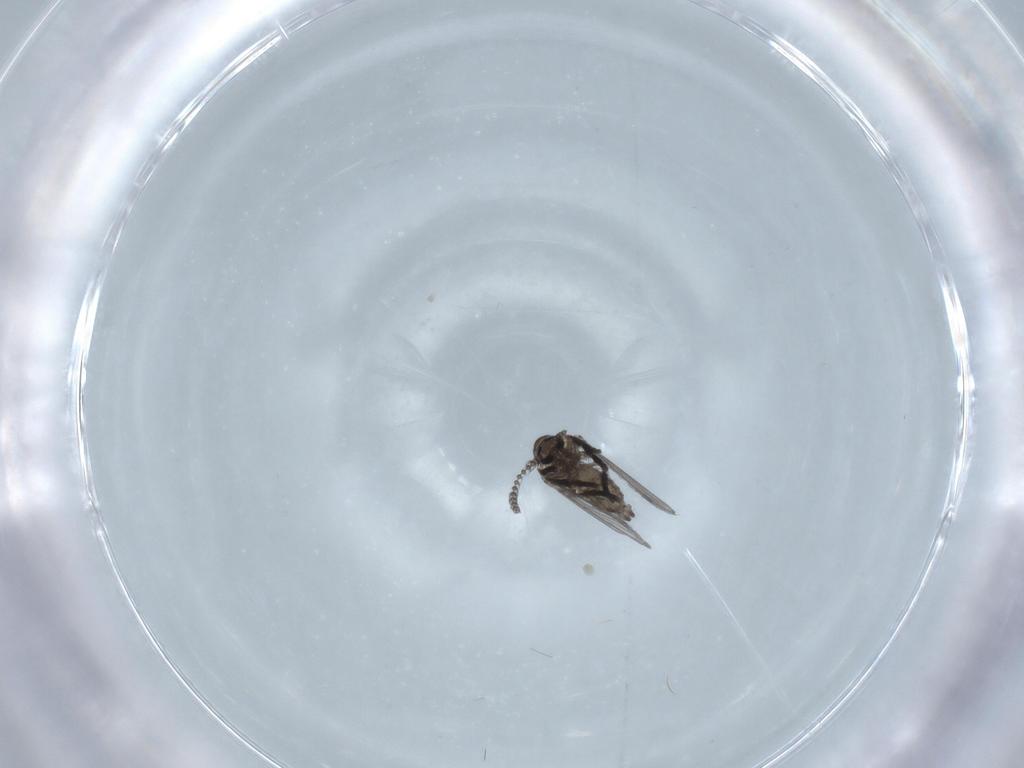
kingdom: Animalia
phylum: Arthropoda
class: Insecta
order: Diptera
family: Psychodidae
